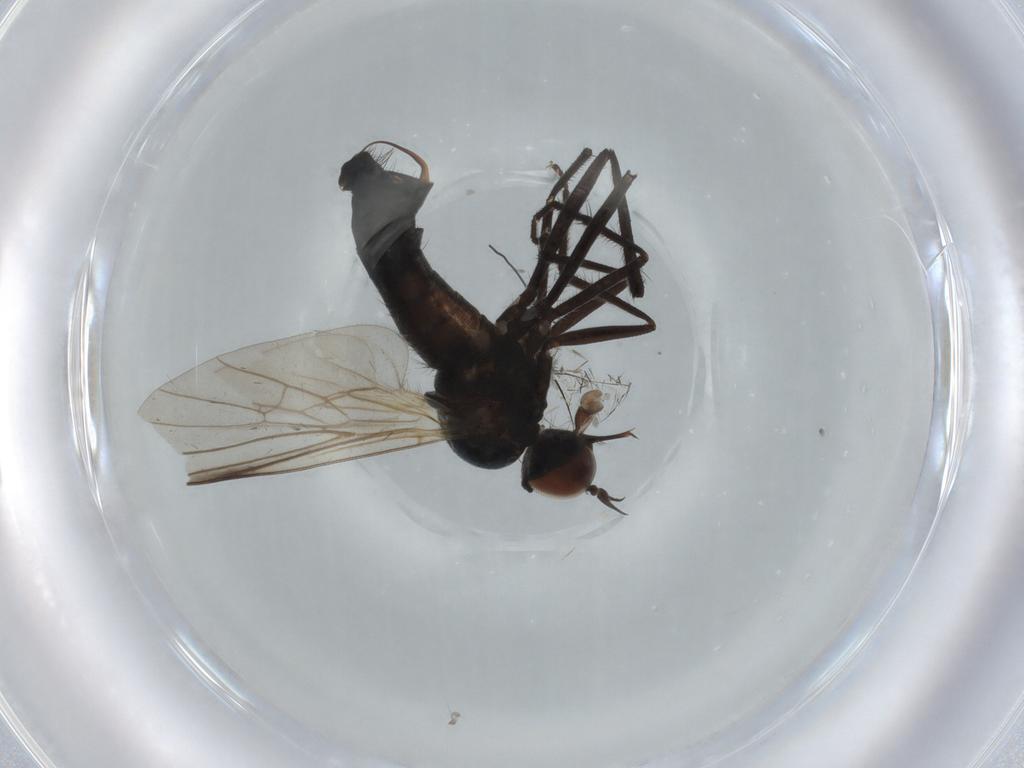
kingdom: Animalia
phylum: Arthropoda
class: Insecta
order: Diptera
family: Empididae
